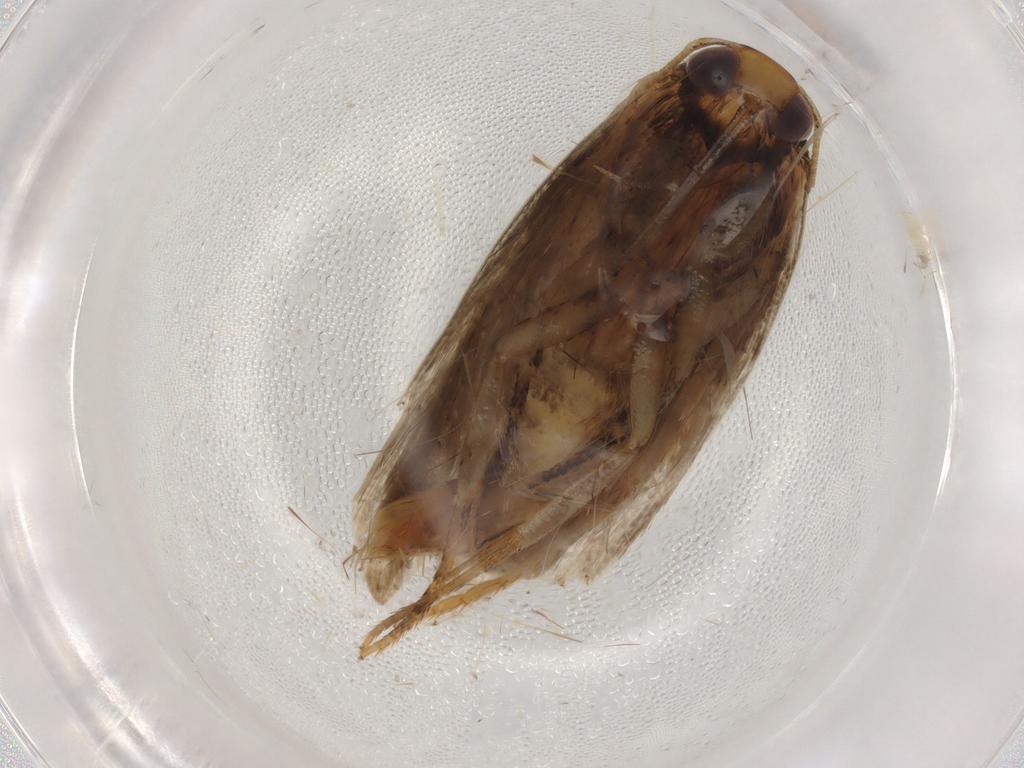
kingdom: Animalia
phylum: Arthropoda
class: Insecta
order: Lepidoptera
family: Gelechiidae
